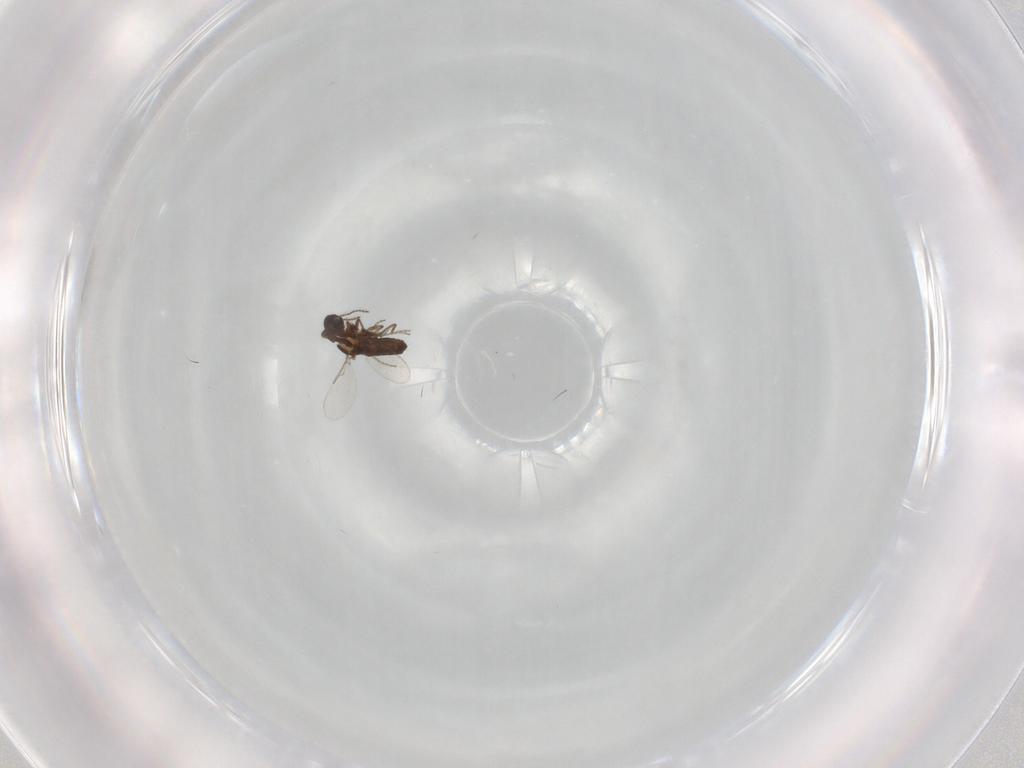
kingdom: Animalia
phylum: Arthropoda
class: Insecta
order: Diptera
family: Ceratopogonidae
